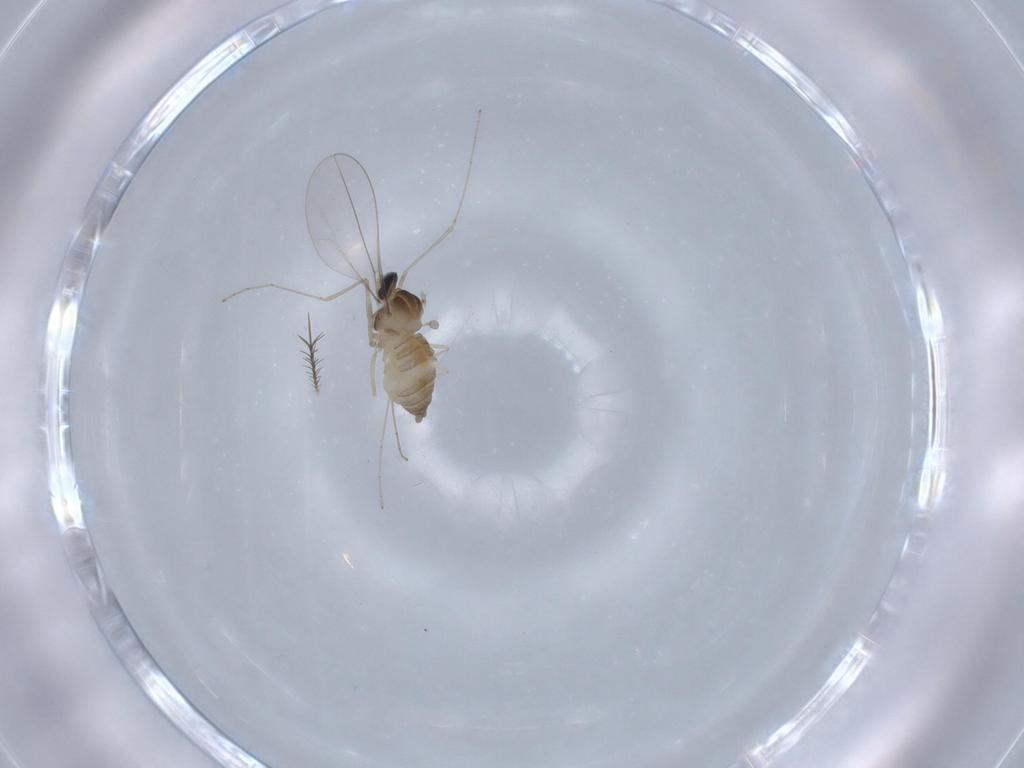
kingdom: Animalia
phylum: Arthropoda
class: Insecta
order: Diptera
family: Cecidomyiidae
